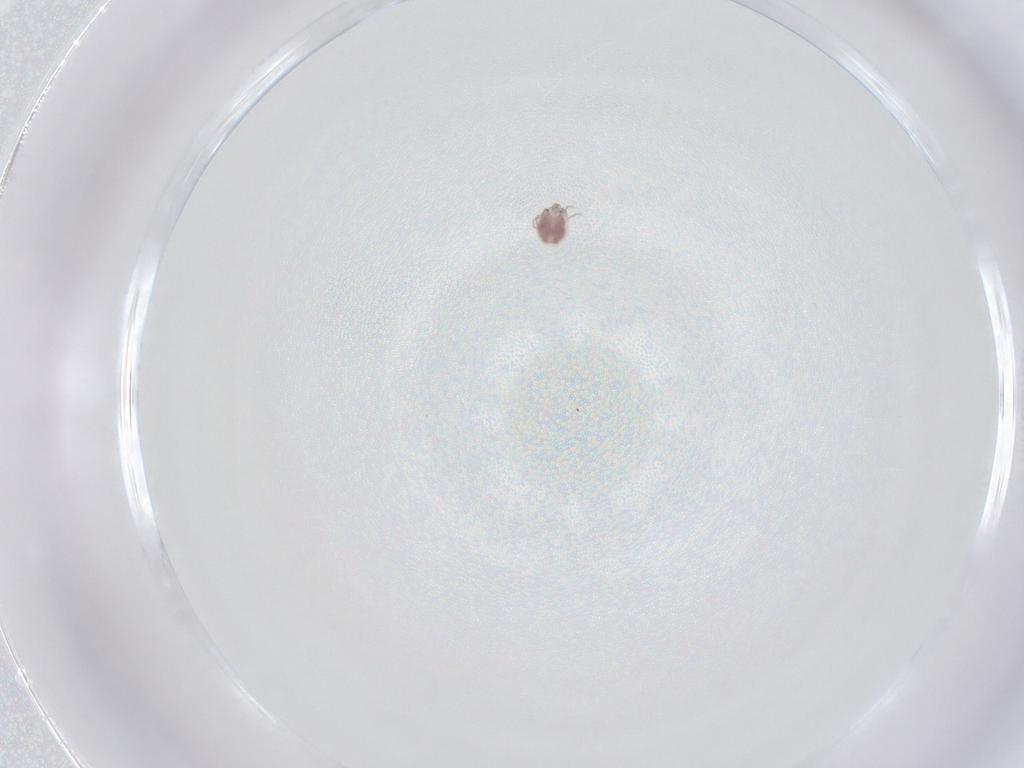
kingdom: Animalia
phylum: Arthropoda
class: Arachnida
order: Trombidiformes
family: Pionidae
